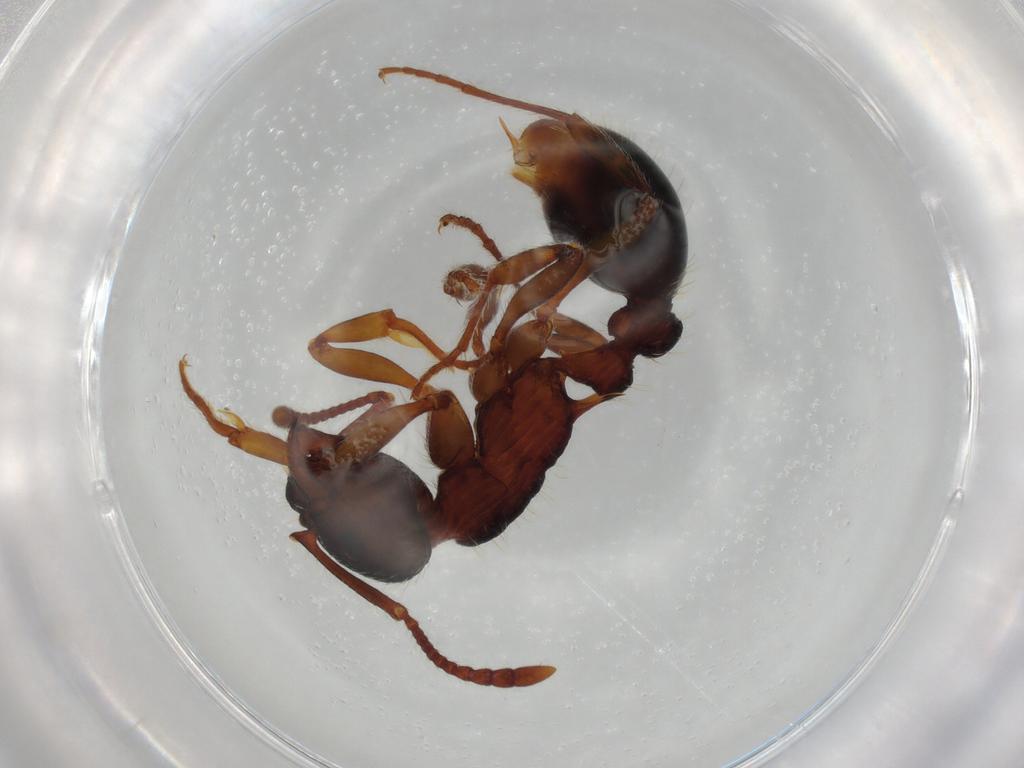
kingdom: Animalia
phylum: Arthropoda
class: Insecta
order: Hymenoptera
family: Formicidae
